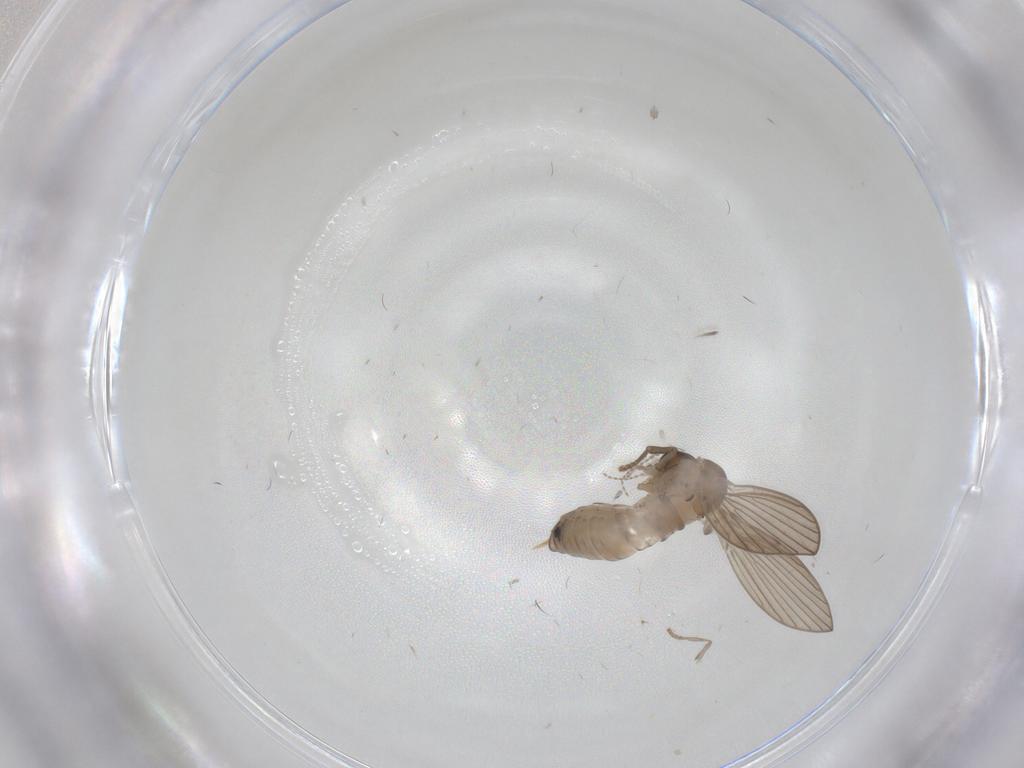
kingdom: Animalia
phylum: Arthropoda
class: Insecta
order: Diptera
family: Psychodidae
